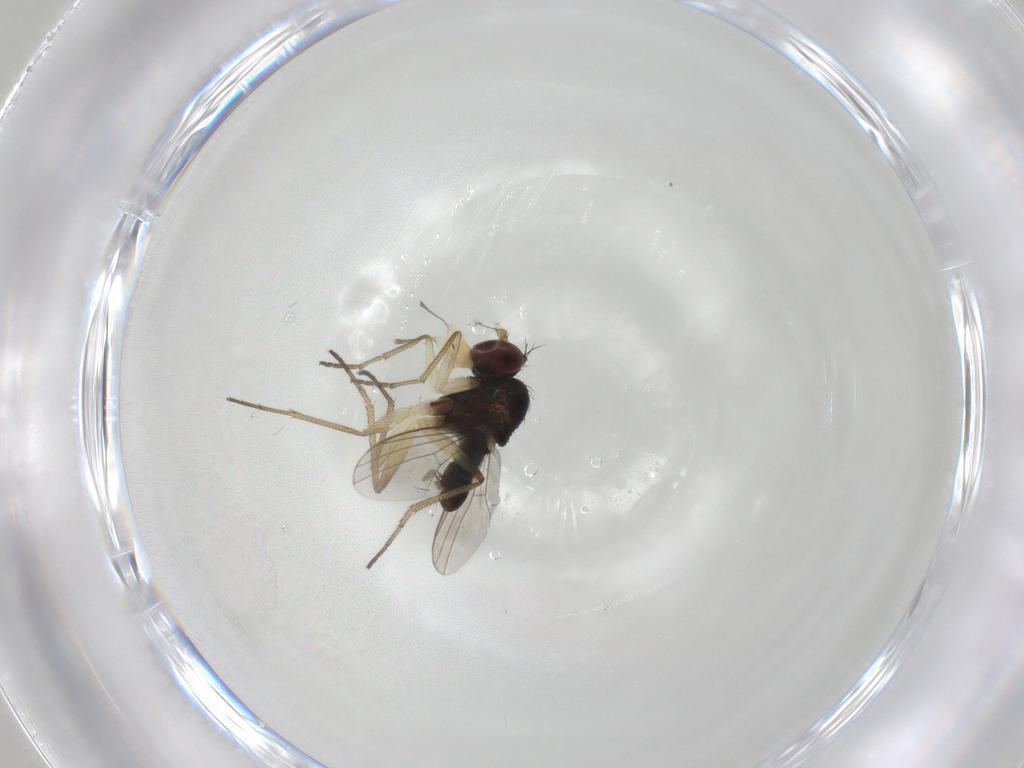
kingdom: Animalia
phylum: Arthropoda
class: Insecta
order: Diptera
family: Dolichopodidae
